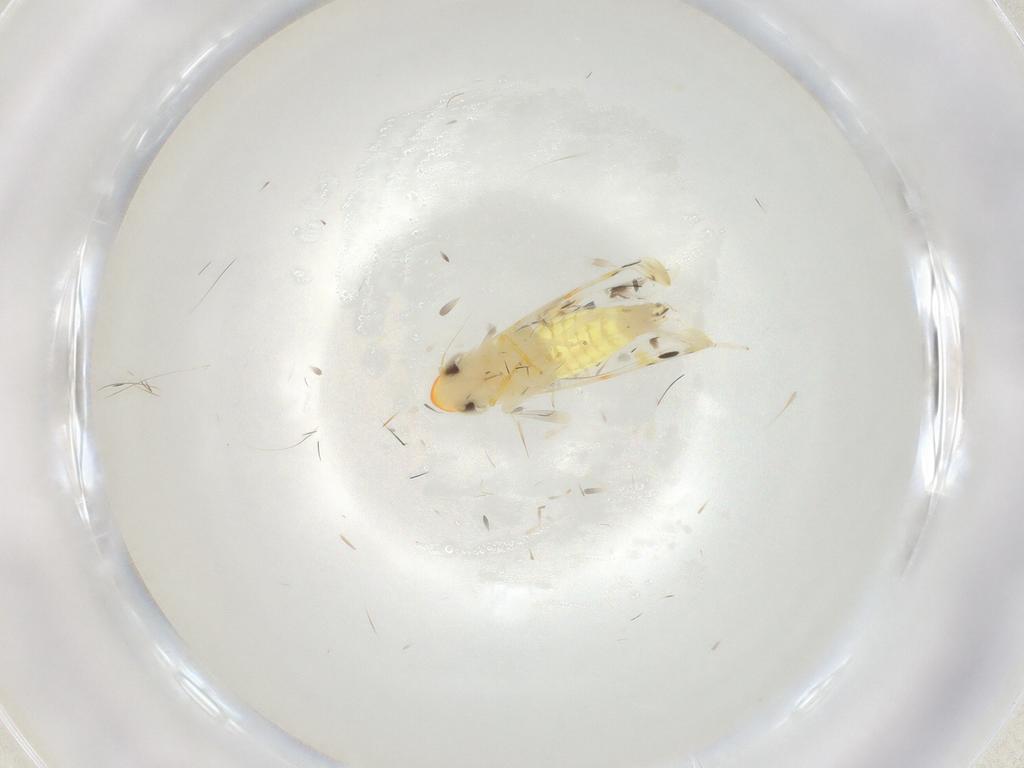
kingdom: Animalia
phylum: Arthropoda
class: Insecta
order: Hemiptera
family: Cicadellidae
